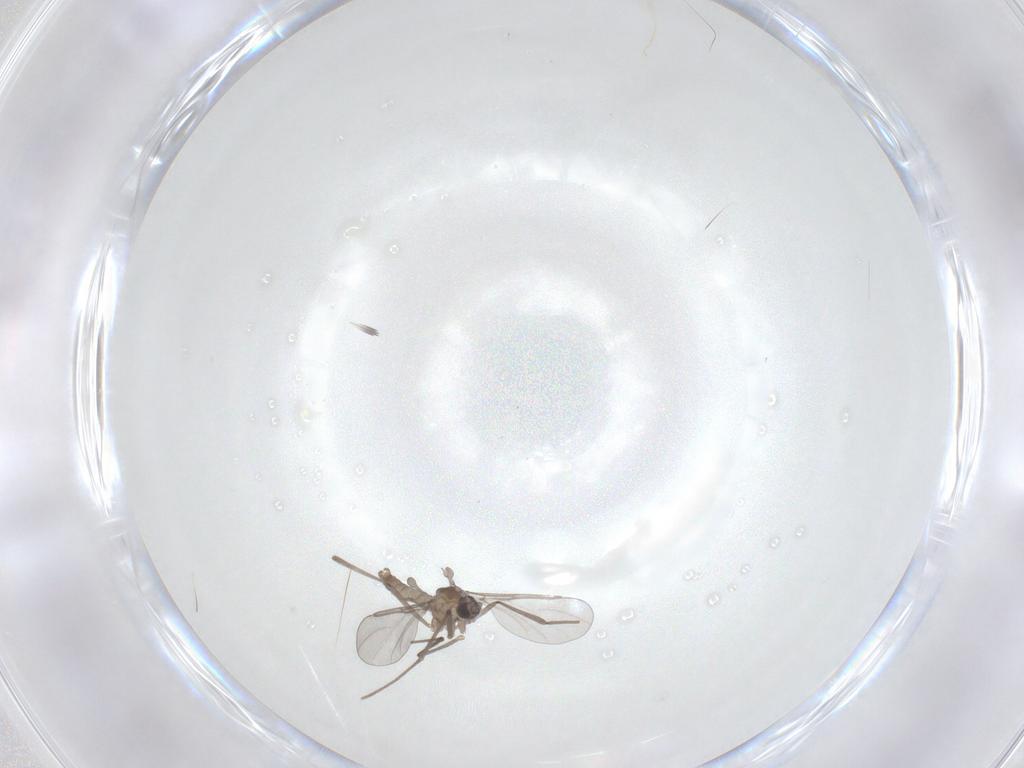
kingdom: Animalia
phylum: Arthropoda
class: Insecta
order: Diptera
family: Cecidomyiidae
